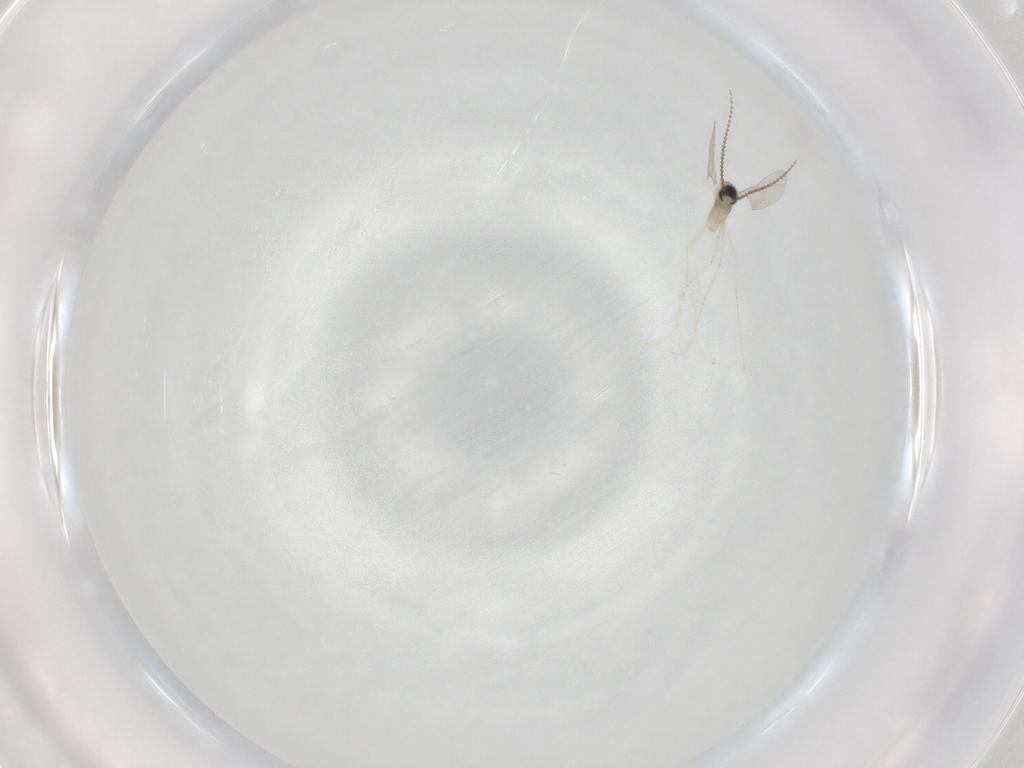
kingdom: Animalia
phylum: Arthropoda
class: Insecta
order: Diptera
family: Cecidomyiidae
